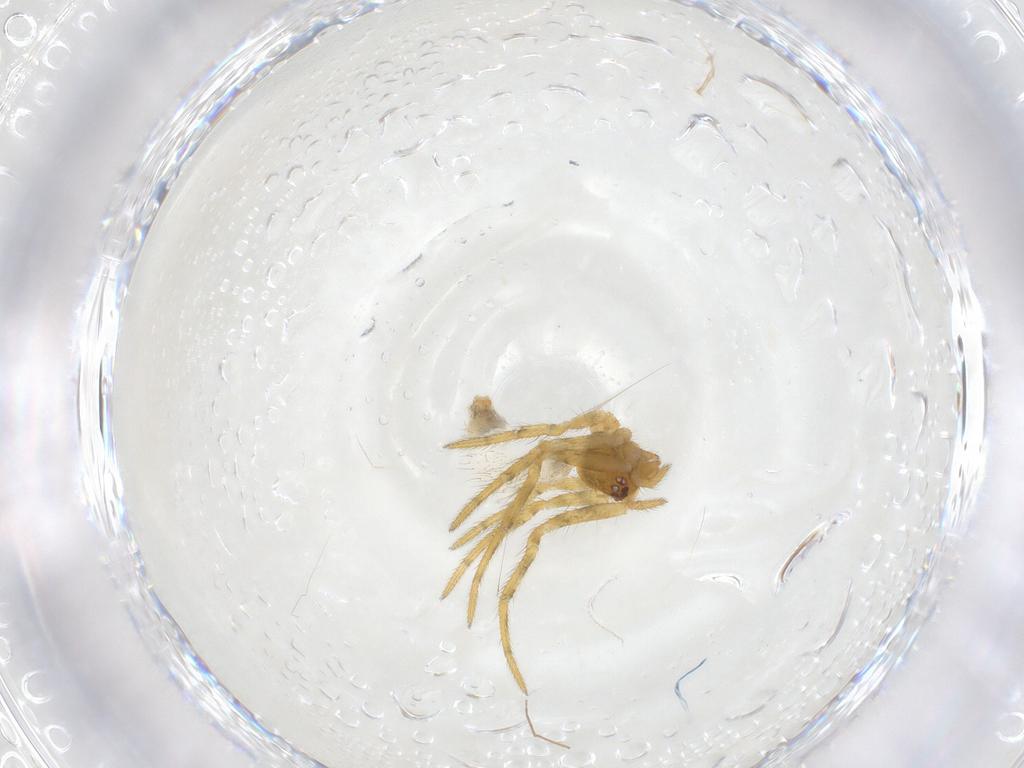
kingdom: Animalia
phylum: Arthropoda
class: Arachnida
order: Araneae
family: Theridiidae
